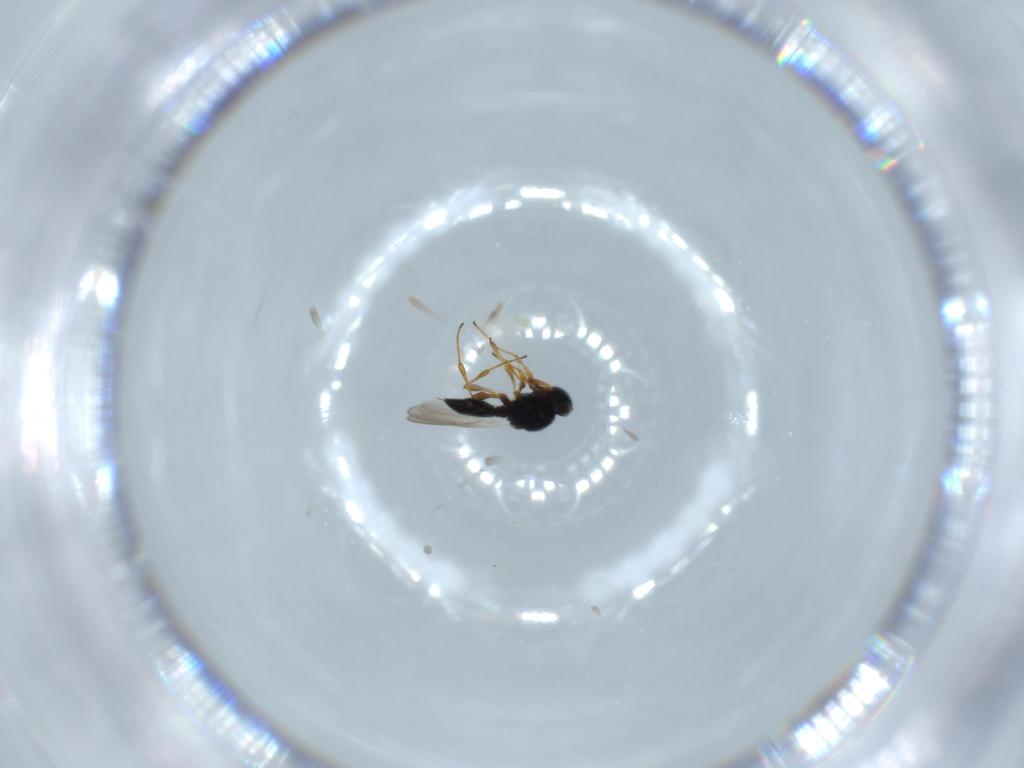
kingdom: Animalia
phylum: Arthropoda
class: Insecta
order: Hymenoptera
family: Platygastridae
